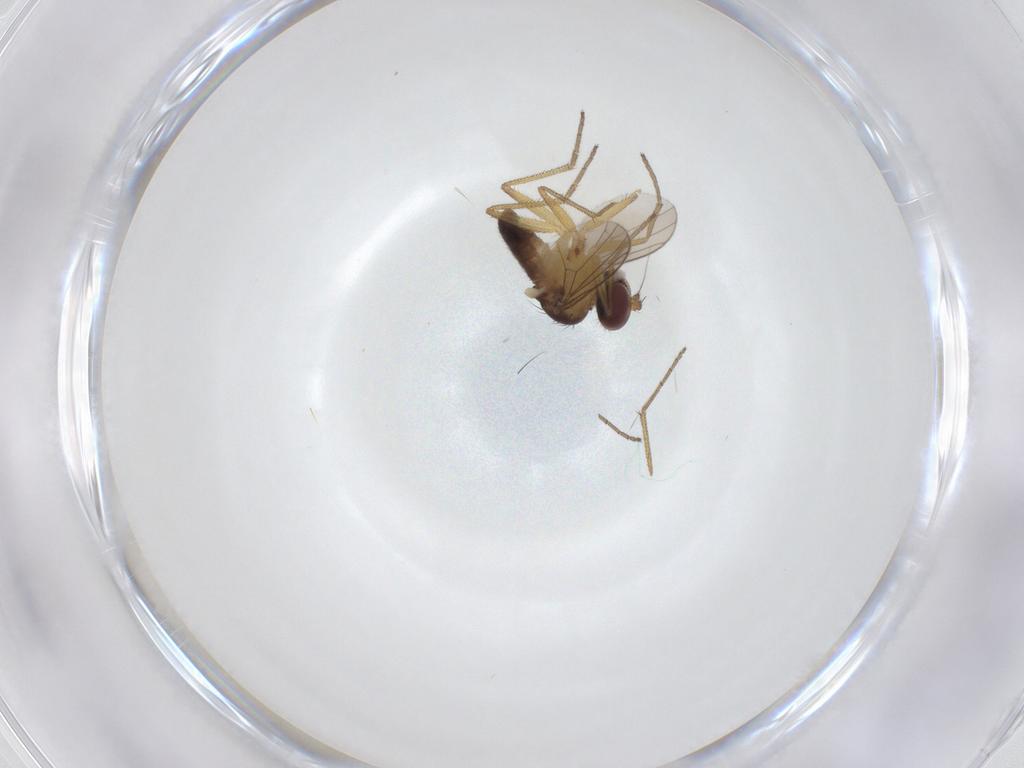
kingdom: Animalia
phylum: Arthropoda
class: Insecta
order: Diptera
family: Dolichopodidae
